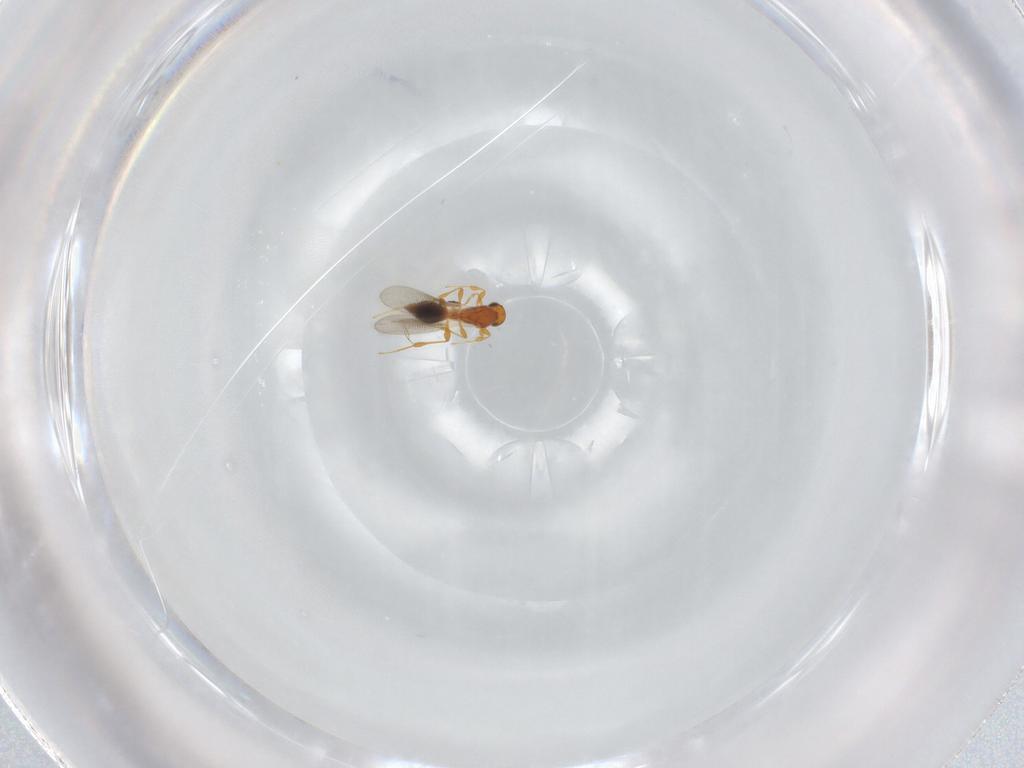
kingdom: Animalia
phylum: Arthropoda
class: Insecta
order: Hymenoptera
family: Platygastridae
